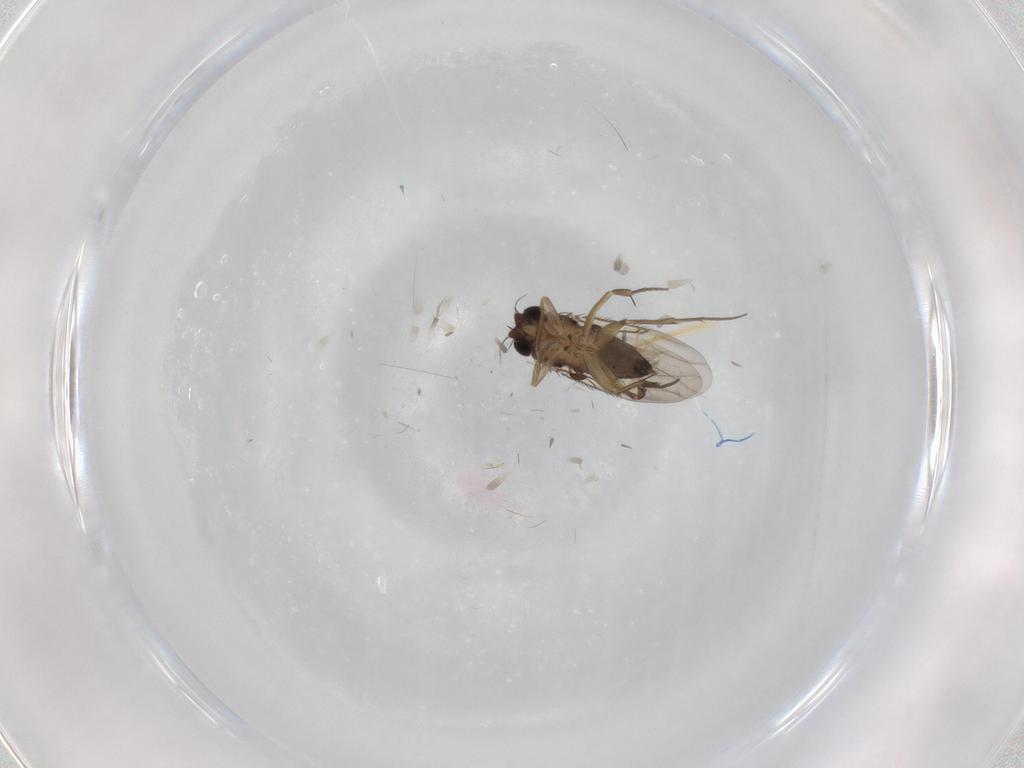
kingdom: Animalia
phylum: Arthropoda
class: Insecta
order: Diptera
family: Phoridae
